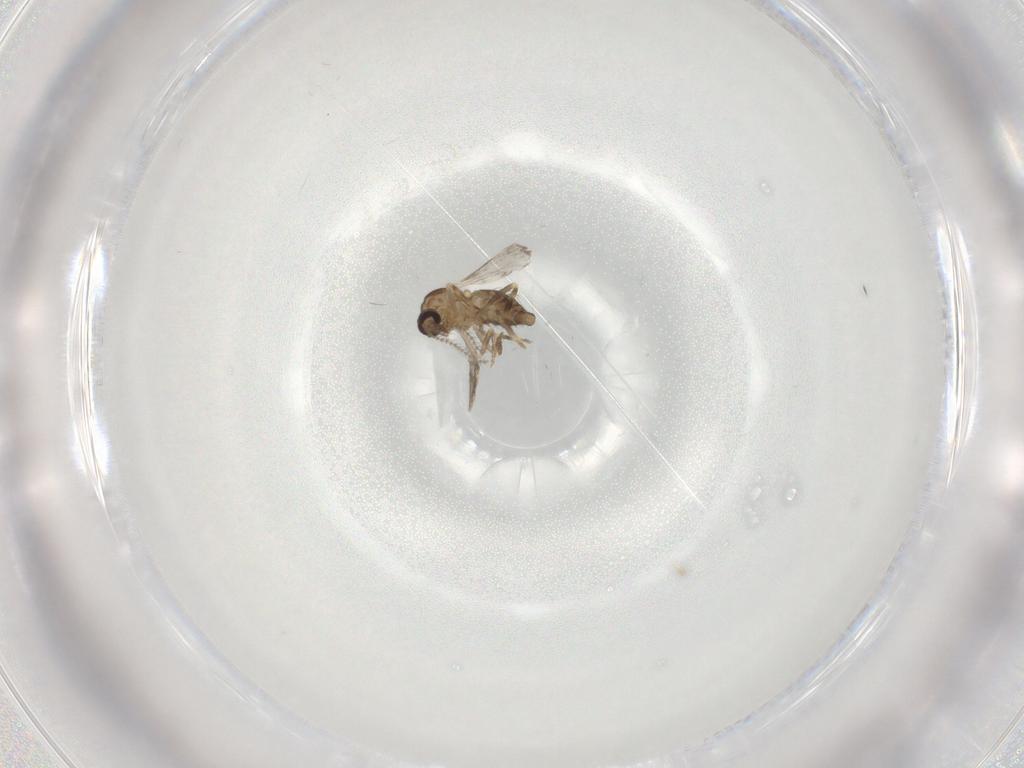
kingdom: Animalia
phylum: Arthropoda
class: Insecta
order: Diptera
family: Ceratopogonidae
